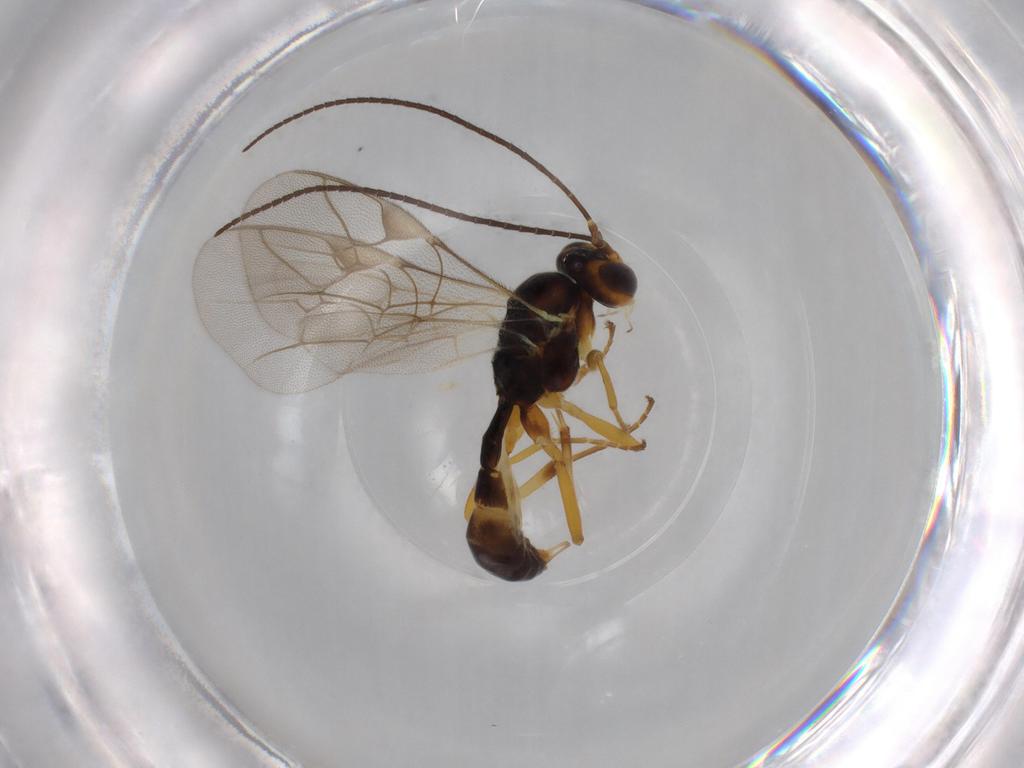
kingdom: Animalia
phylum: Arthropoda
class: Insecta
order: Hymenoptera
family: Ichneumonidae
